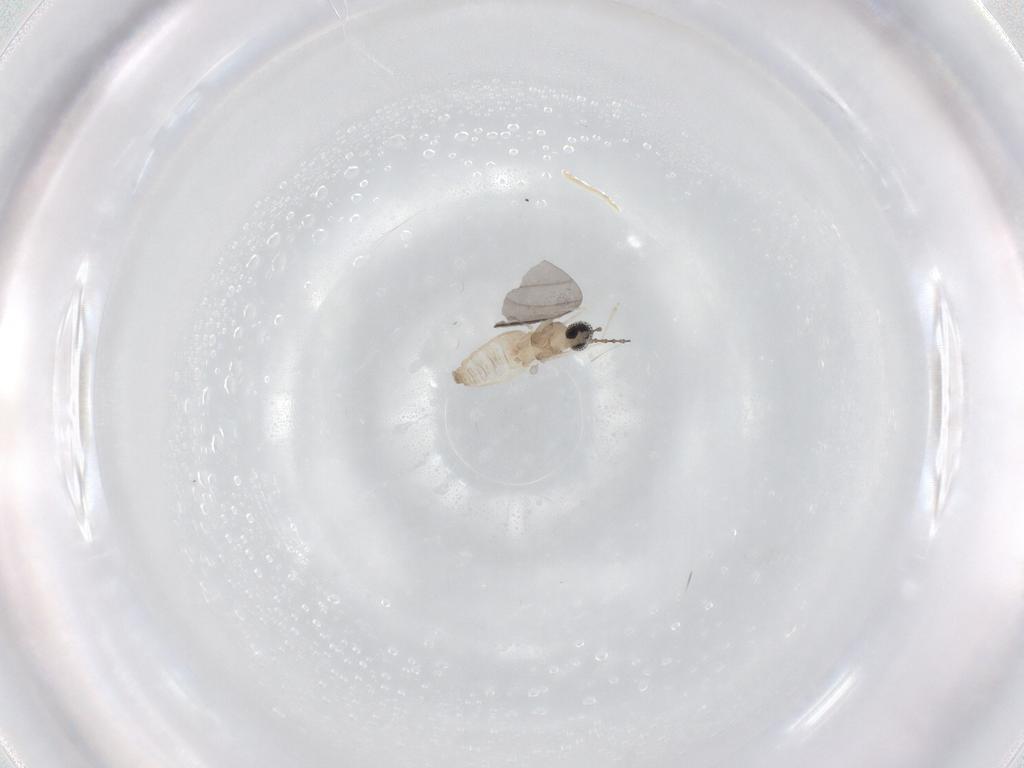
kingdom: Animalia
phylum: Arthropoda
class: Insecta
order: Diptera
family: Cecidomyiidae
